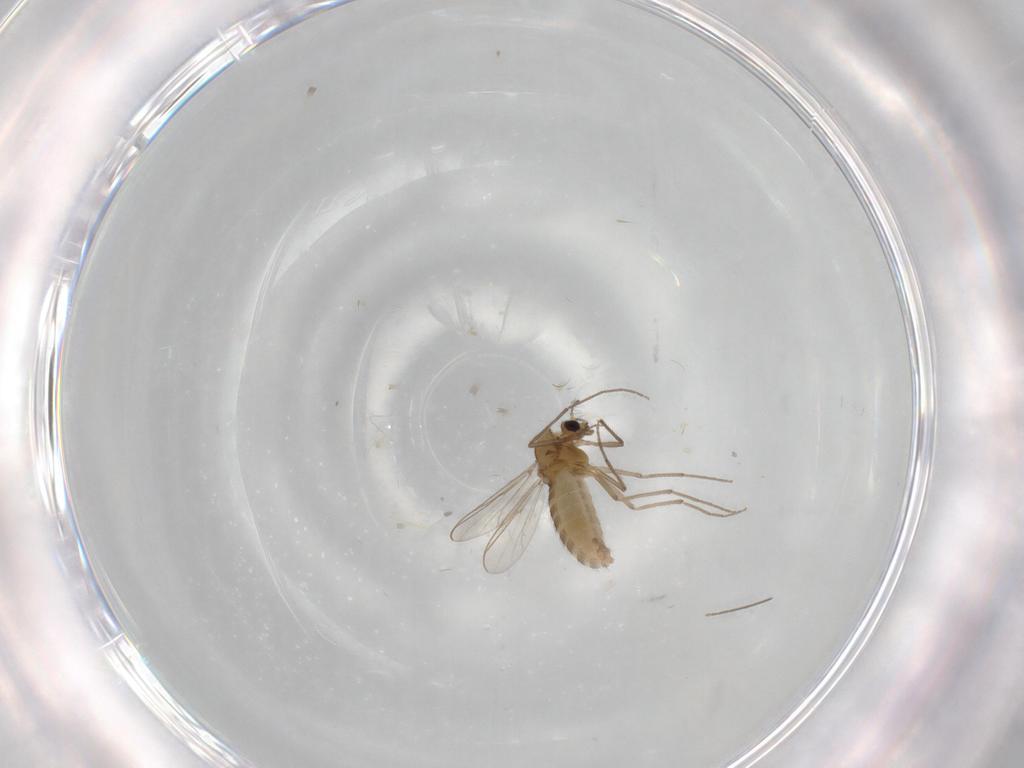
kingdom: Animalia
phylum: Arthropoda
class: Insecta
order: Diptera
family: Chironomidae
